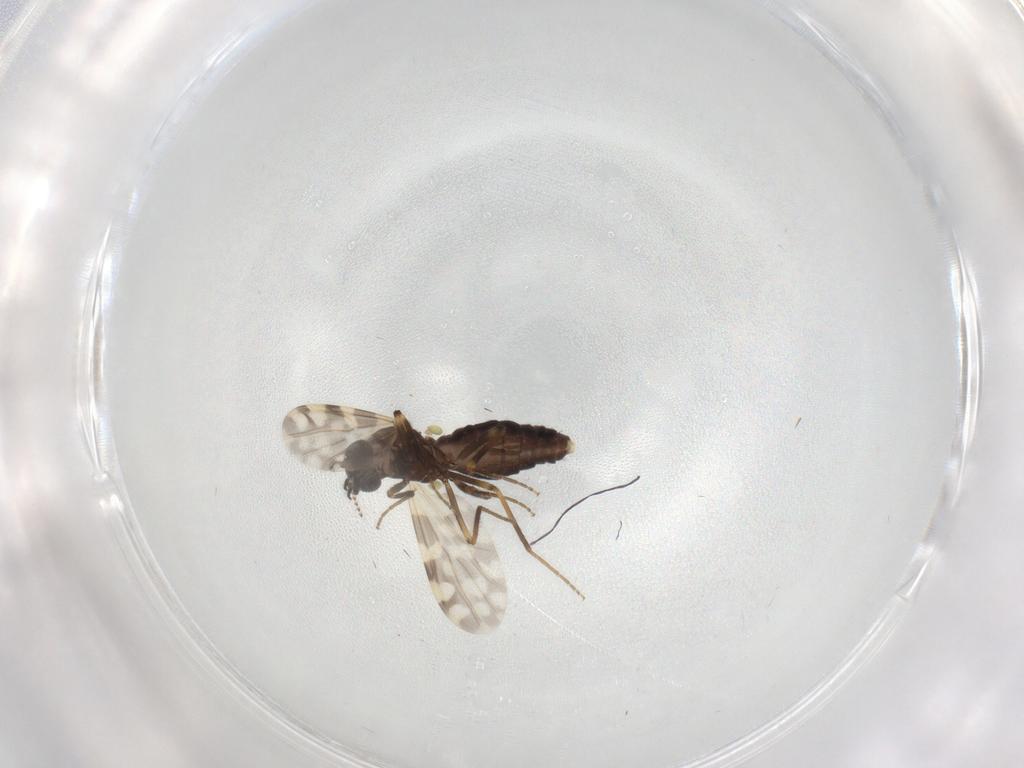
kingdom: Animalia
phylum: Arthropoda
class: Insecta
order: Diptera
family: Ceratopogonidae
